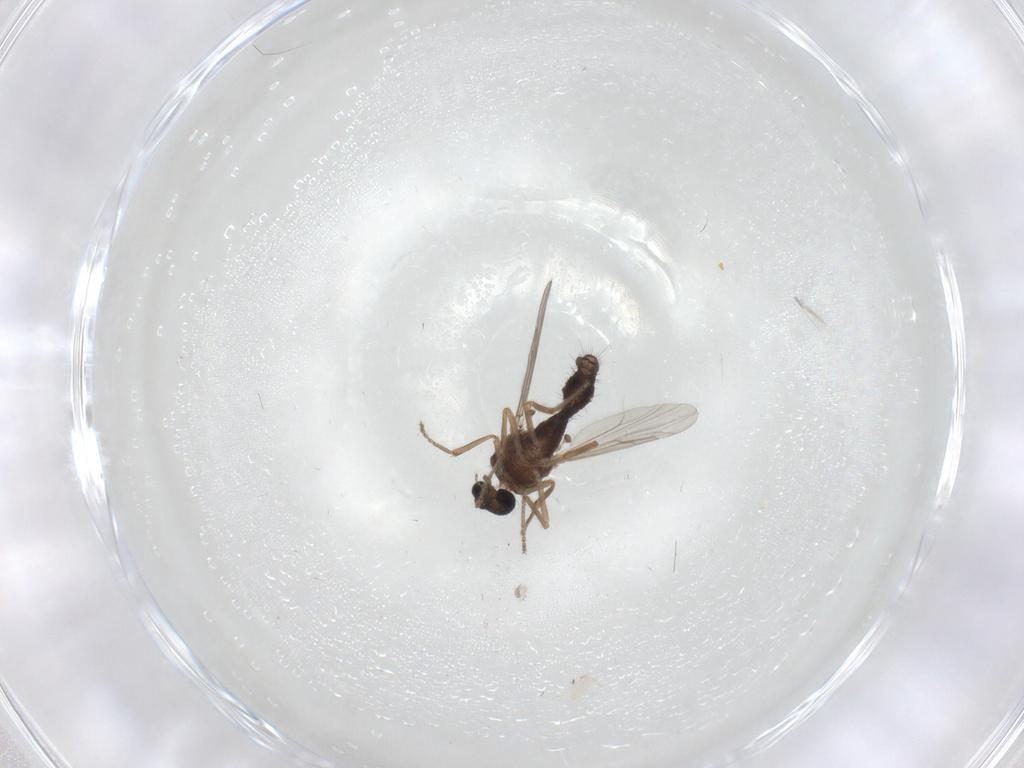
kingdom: Animalia
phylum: Arthropoda
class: Insecta
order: Diptera
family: Ceratopogonidae
